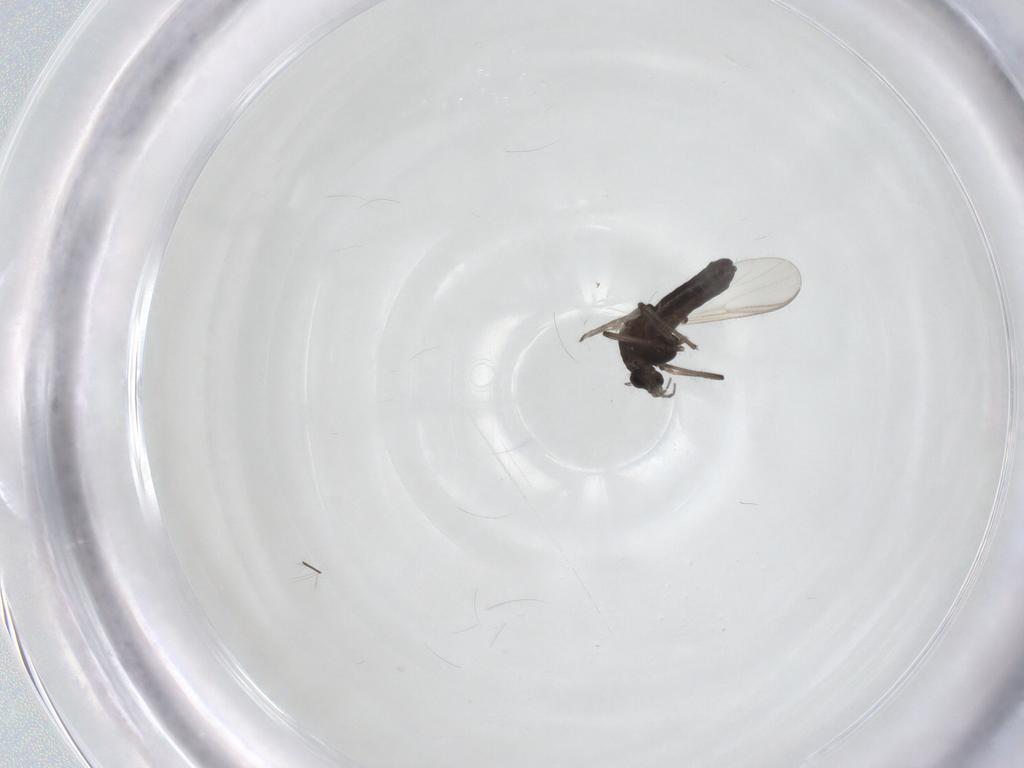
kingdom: Animalia
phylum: Arthropoda
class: Insecta
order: Diptera
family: Chironomidae
